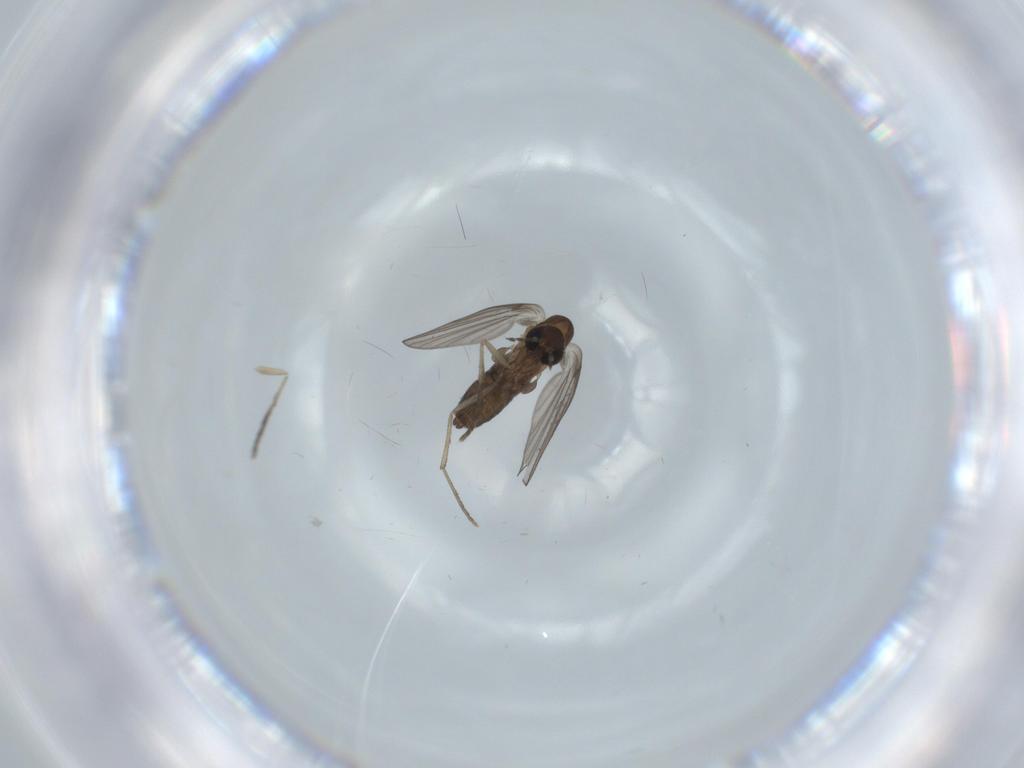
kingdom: Animalia
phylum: Arthropoda
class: Insecta
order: Diptera
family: Psychodidae
